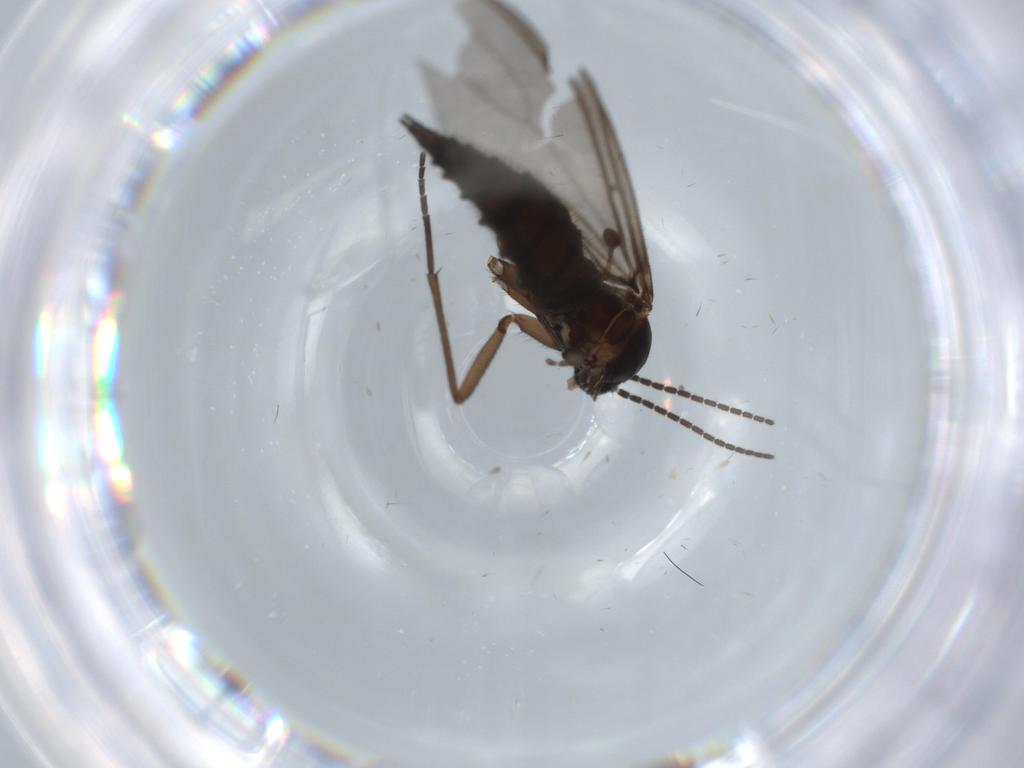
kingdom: Animalia
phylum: Arthropoda
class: Insecta
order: Diptera
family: Sciaridae
